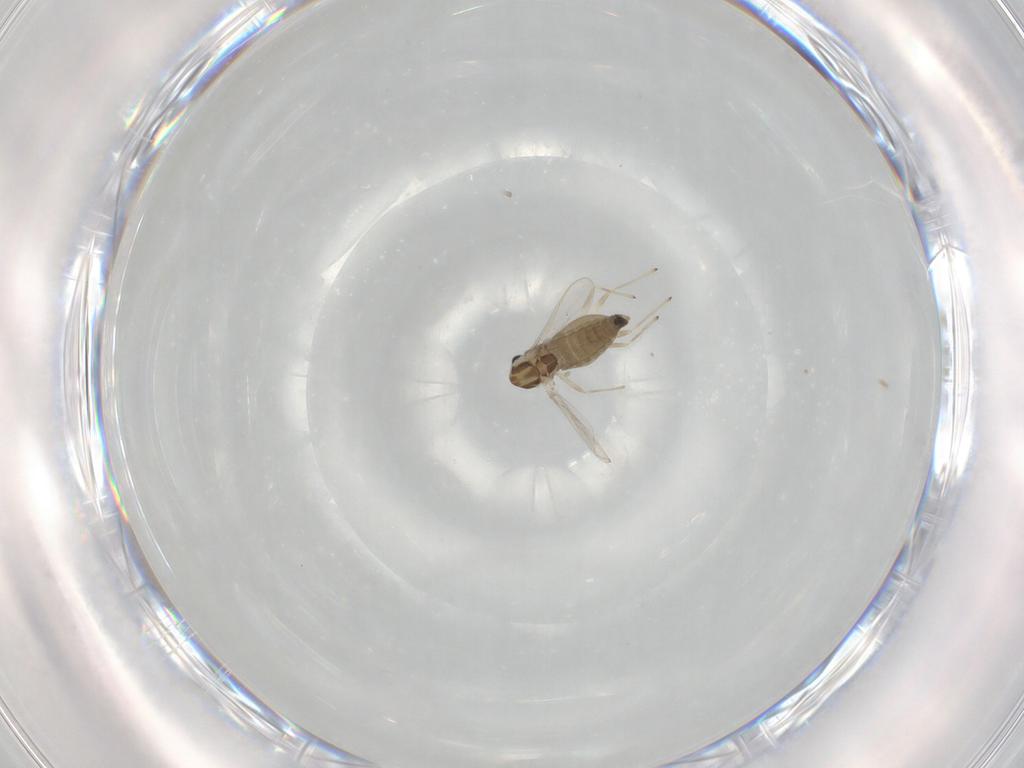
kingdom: Animalia
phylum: Arthropoda
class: Insecta
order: Diptera
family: Chironomidae
